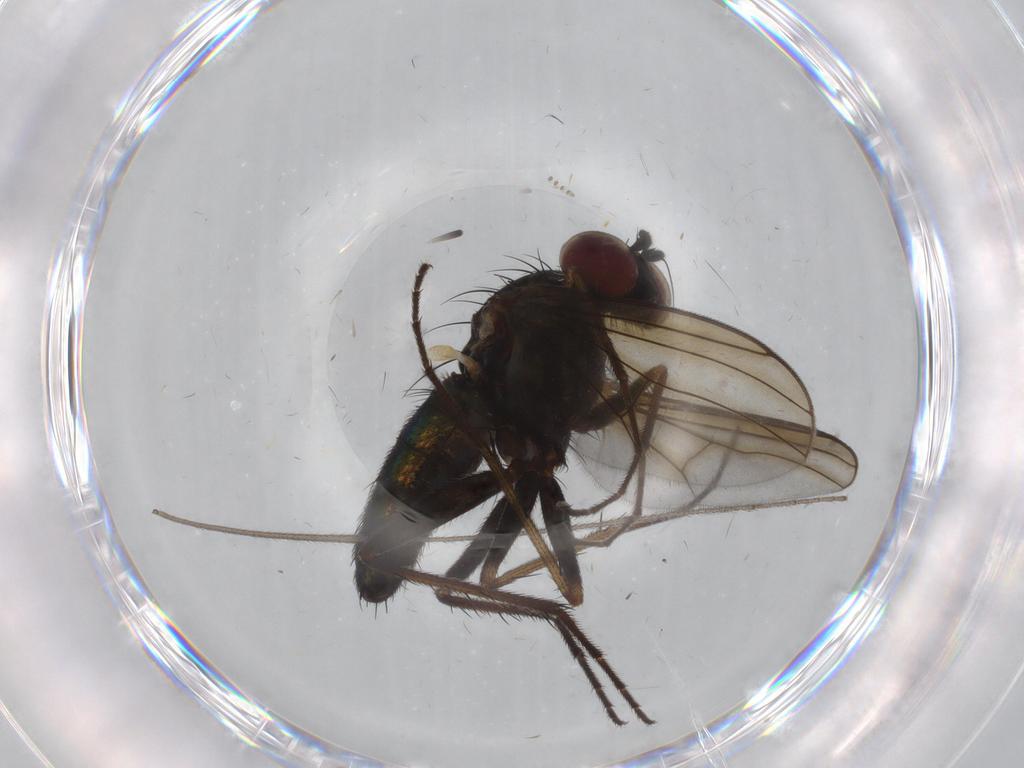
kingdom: Animalia
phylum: Arthropoda
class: Insecta
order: Diptera
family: Dolichopodidae
